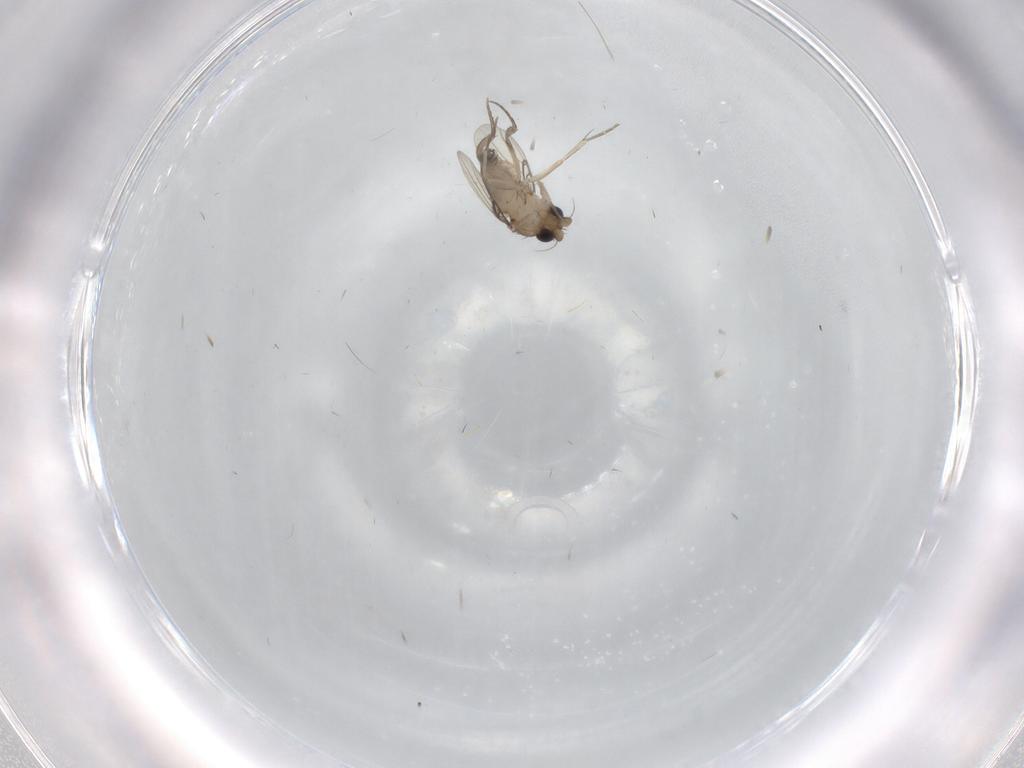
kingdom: Animalia
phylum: Arthropoda
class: Insecta
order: Diptera
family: Phoridae
